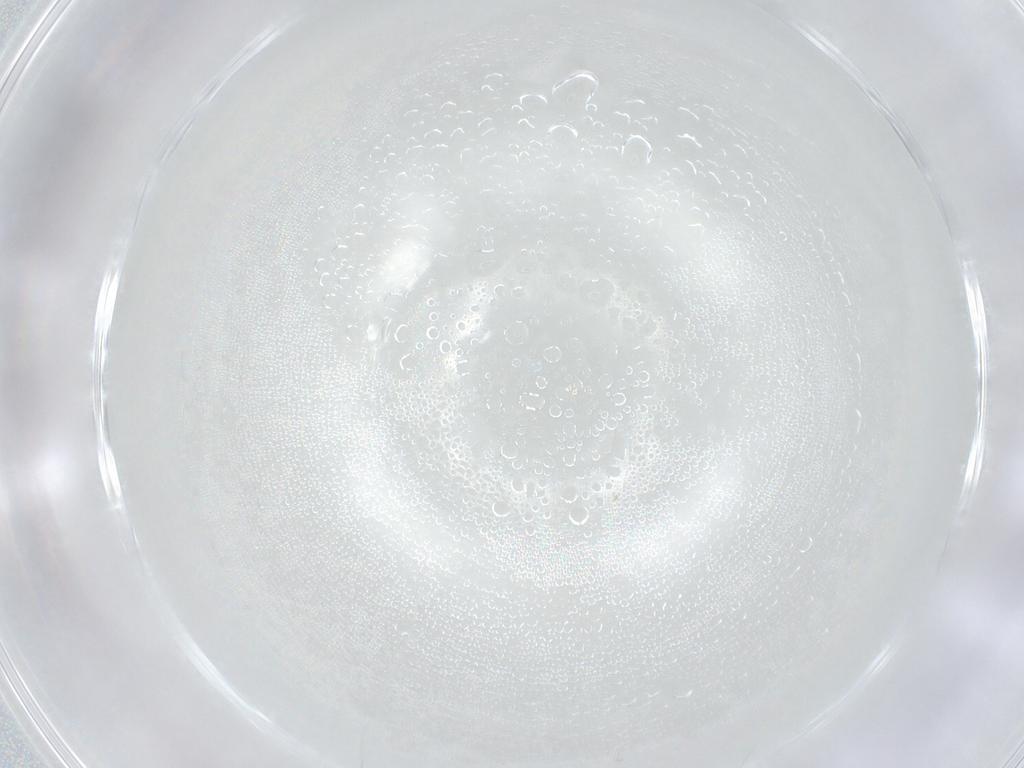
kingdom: Animalia
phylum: Arthropoda
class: Insecta
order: Hemiptera
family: Aphididae
